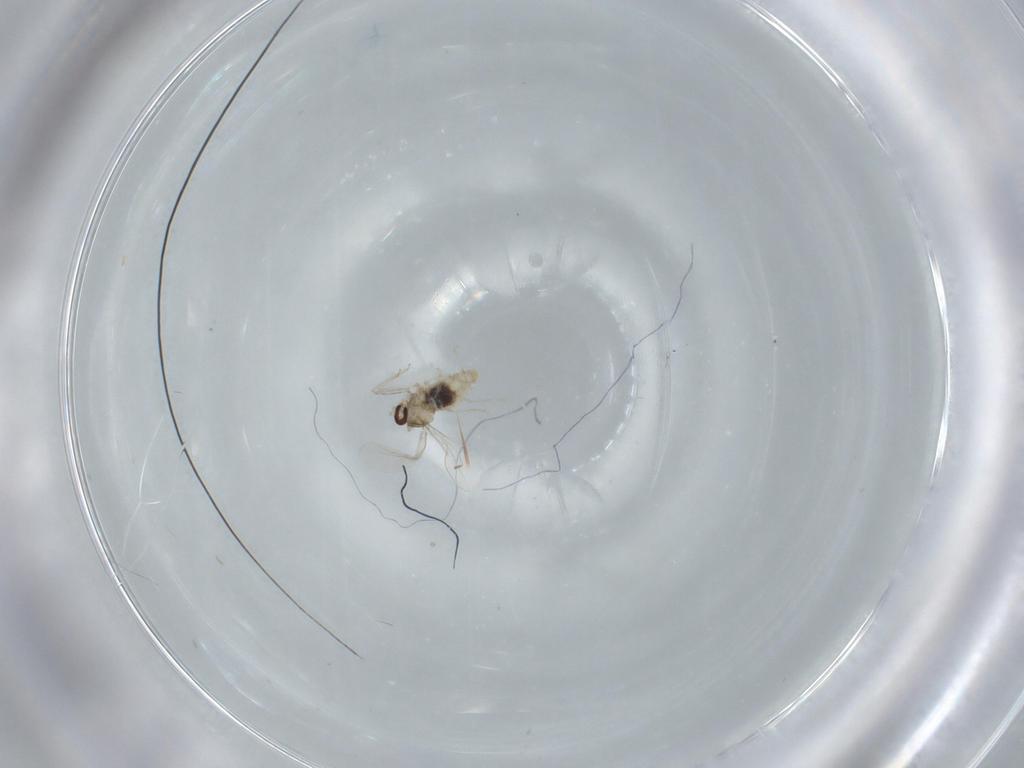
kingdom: Animalia
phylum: Arthropoda
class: Insecta
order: Diptera
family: Cecidomyiidae
